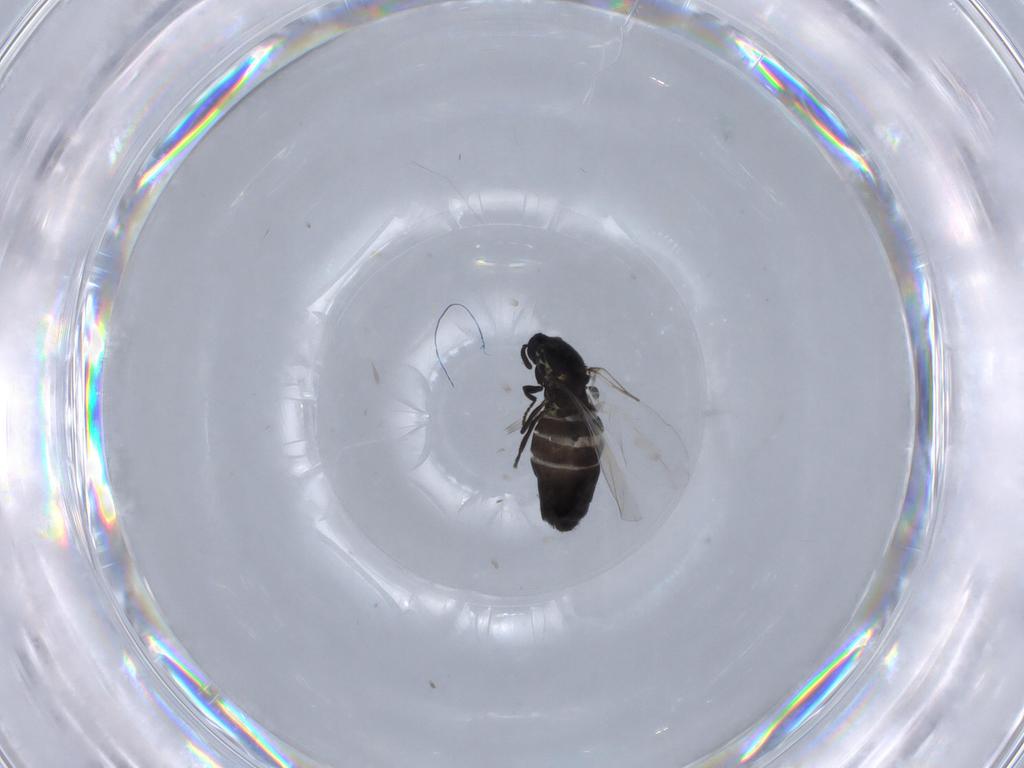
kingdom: Animalia
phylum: Arthropoda
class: Insecta
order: Diptera
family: Scatopsidae
